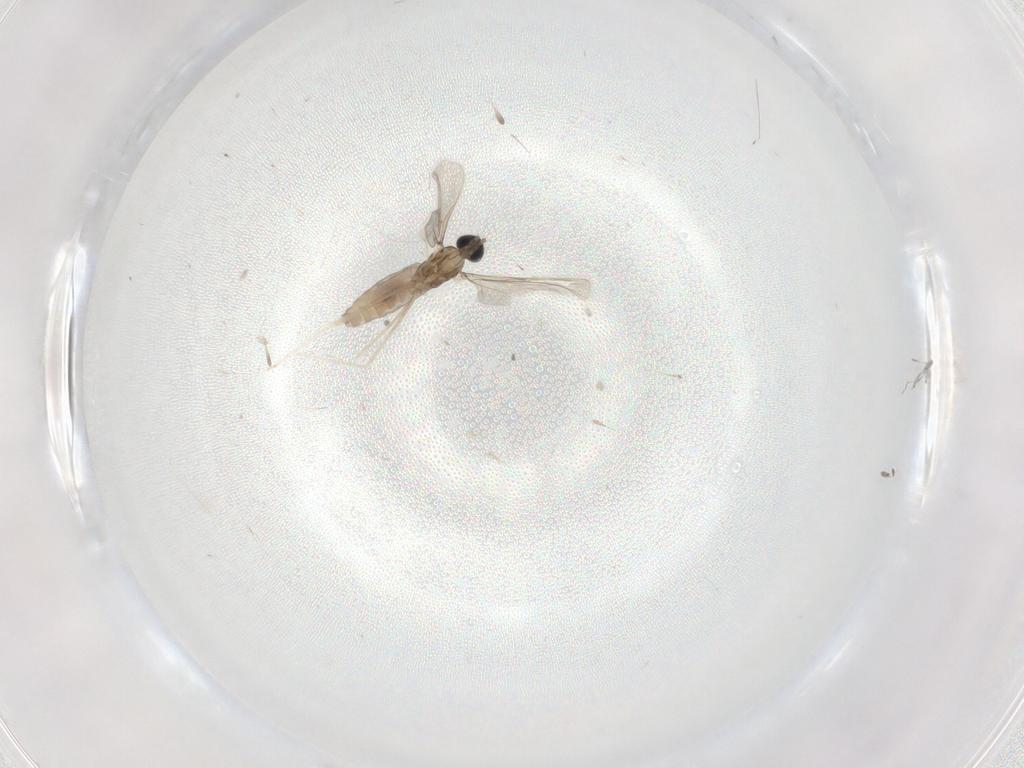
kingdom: Animalia
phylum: Arthropoda
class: Insecta
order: Diptera
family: Cecidomyiidae
